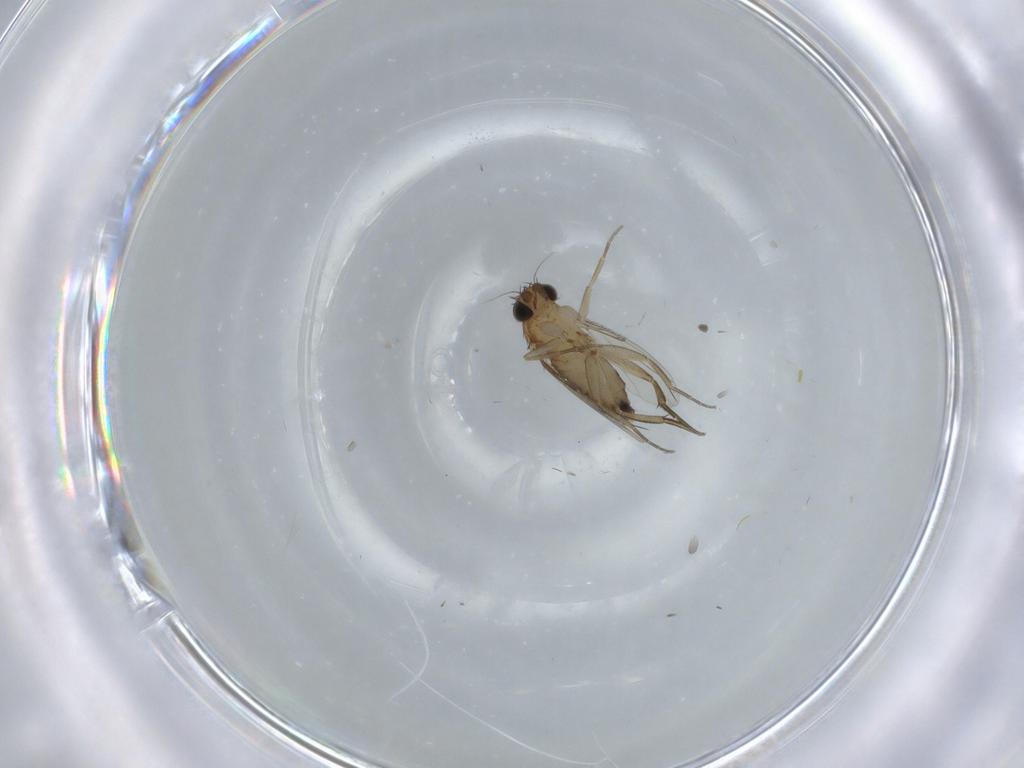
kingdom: Animalia
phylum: Arthropoda
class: Insecta
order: Diptera
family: Phoridae
